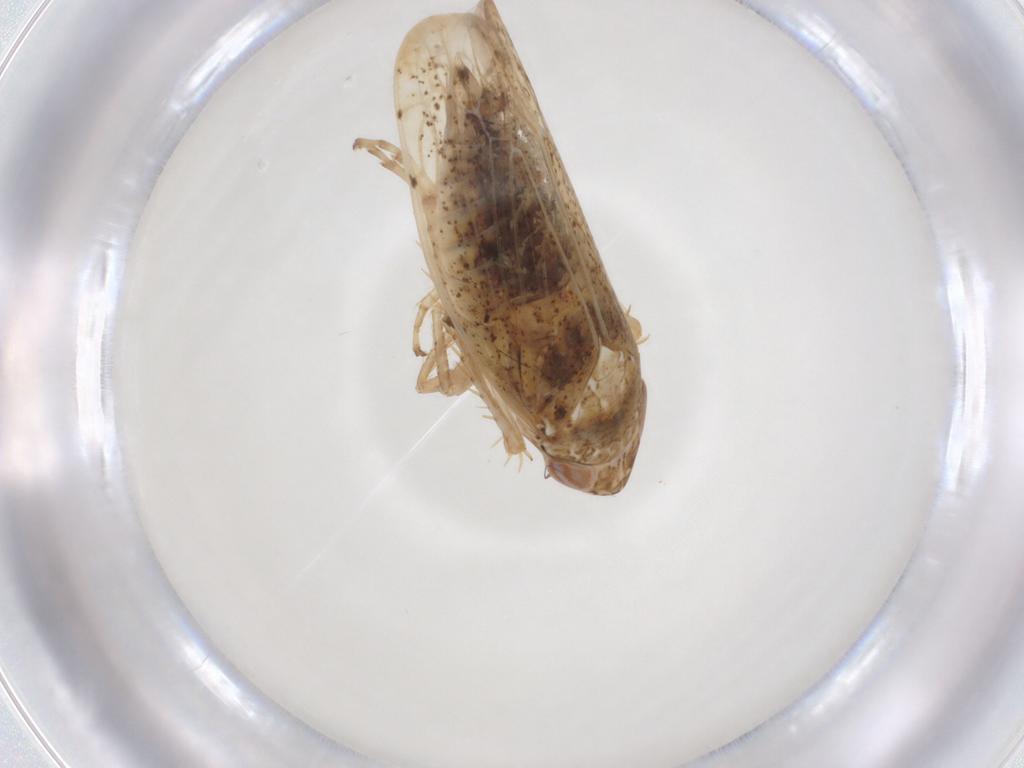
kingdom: Animalia
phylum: Arthropoda
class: Insecta
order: Hemiptera
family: Cicadellidae
